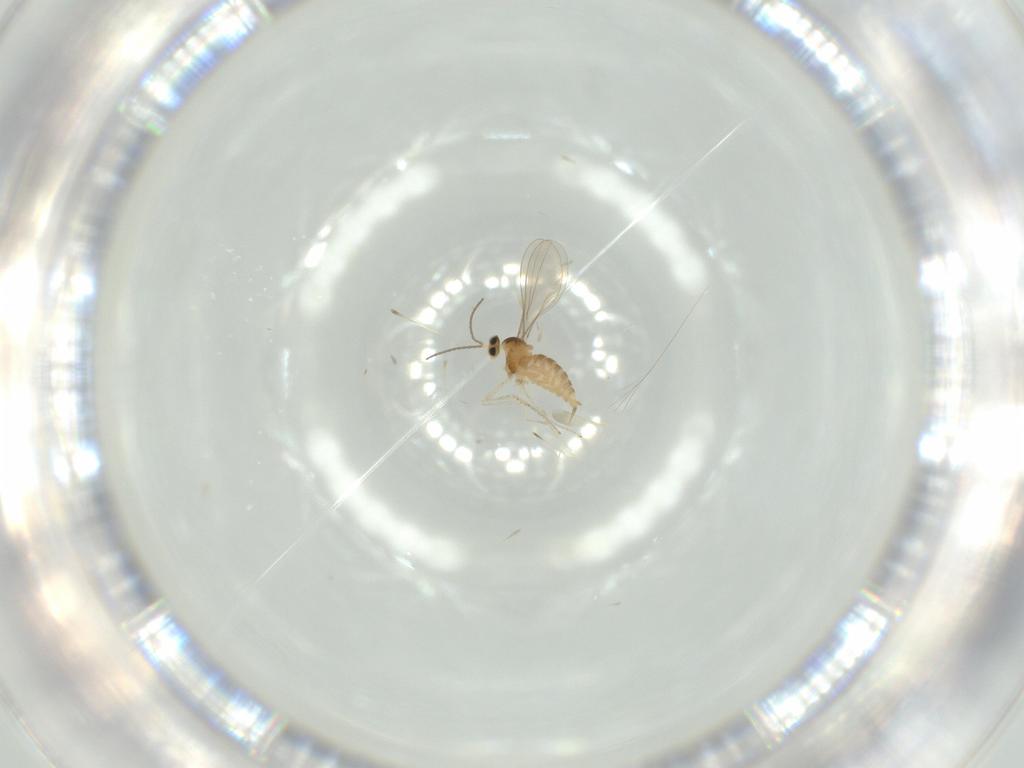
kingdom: Animalia
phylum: Arthropoda
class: Insecta
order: Diptera
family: Cecidomyiidae
